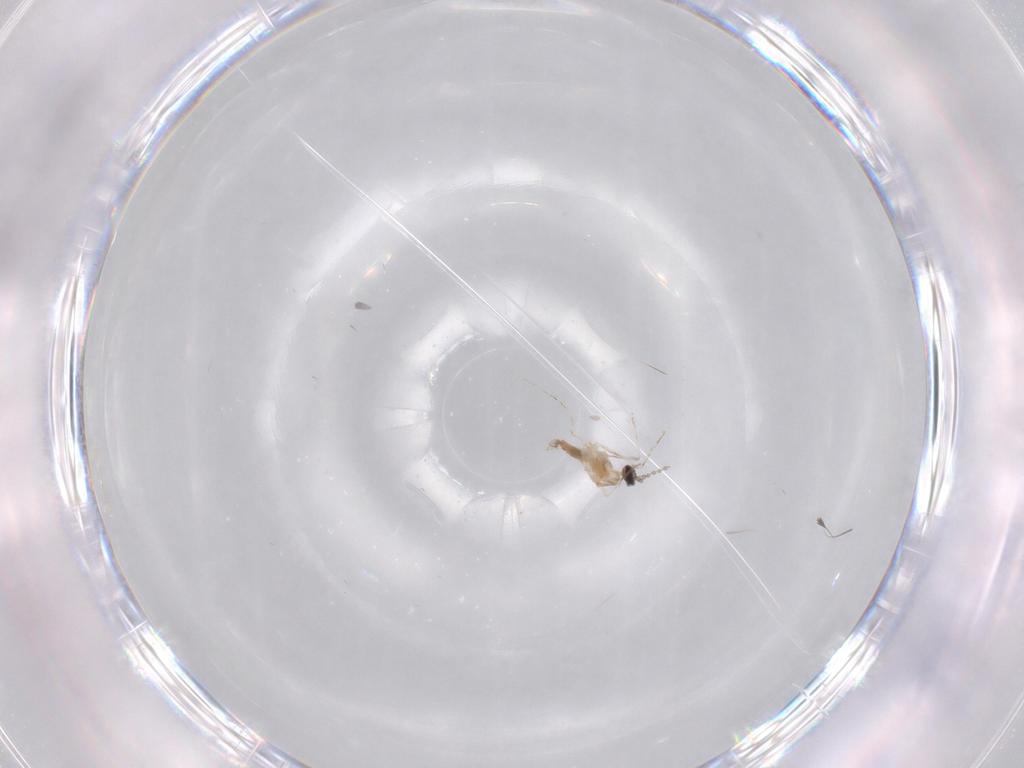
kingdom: Animalia
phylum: Arthropoda
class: Insecta
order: Diptera
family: Cecidomyiidae
